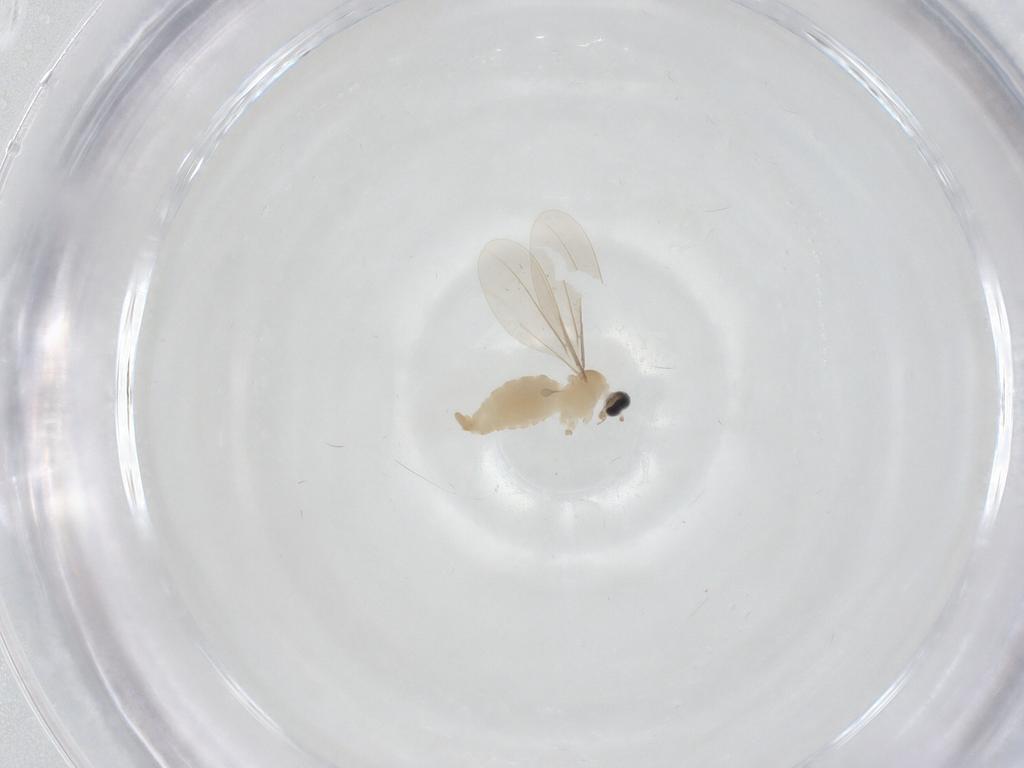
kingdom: Animalia
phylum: Arthropoda
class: Insecta
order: Diptera
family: Cecidomyiidae
